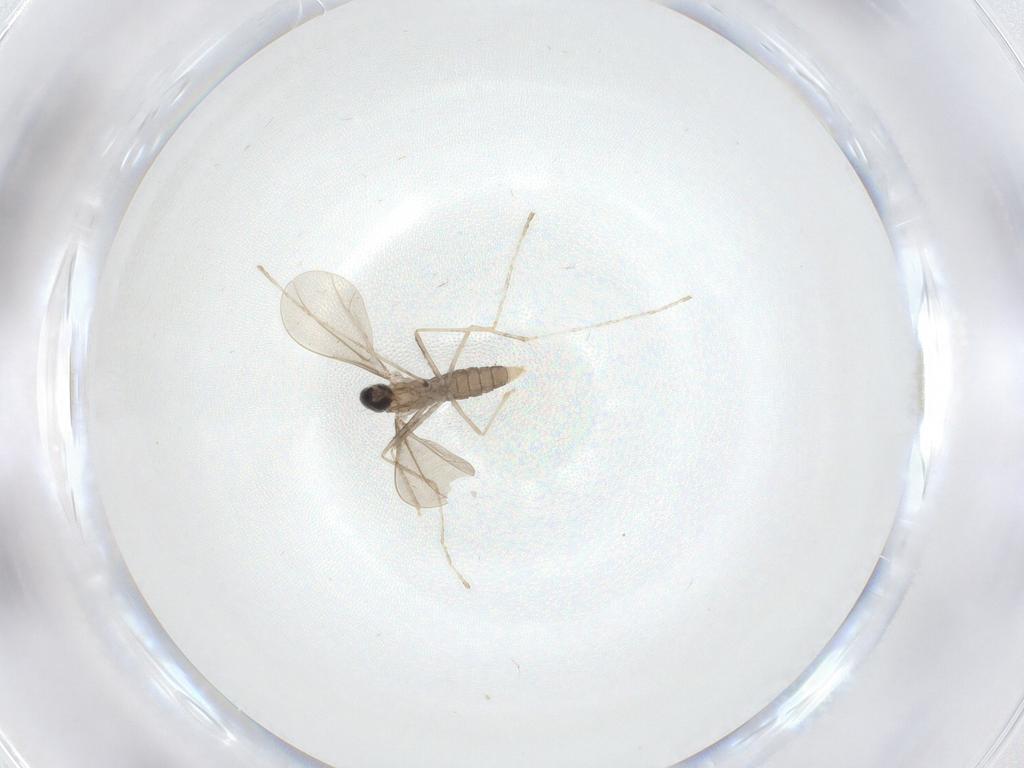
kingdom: Animalia
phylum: Arthropoda
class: Insecta
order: Diptera
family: Cecidomyiidae
